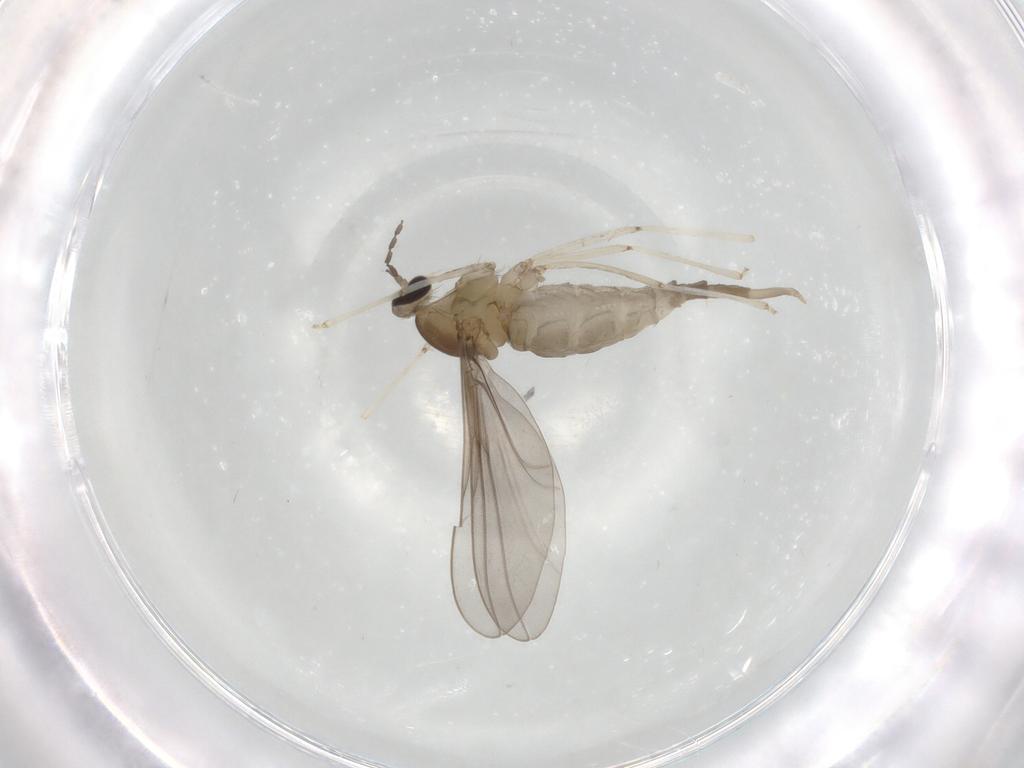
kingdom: Animalia
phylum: Arthropoda
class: Insecta
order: Diptera
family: Cecidomyiidae
